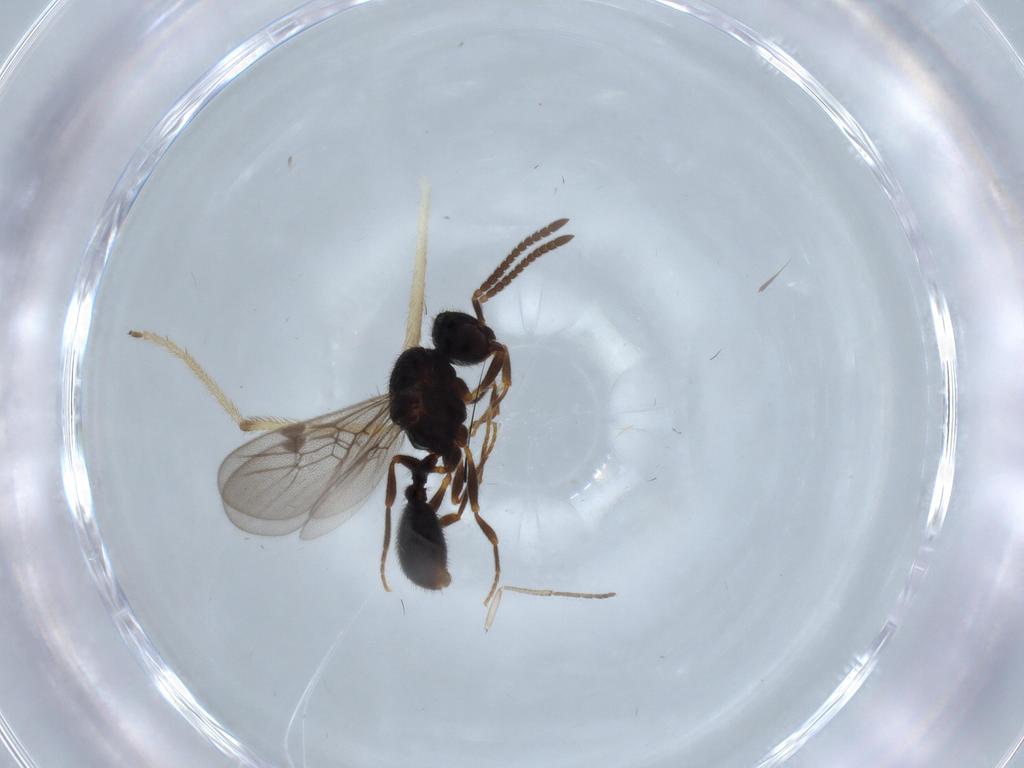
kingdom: Animalia
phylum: Arthropoda
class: Insecta
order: Hymenoptera
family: Formicidae
